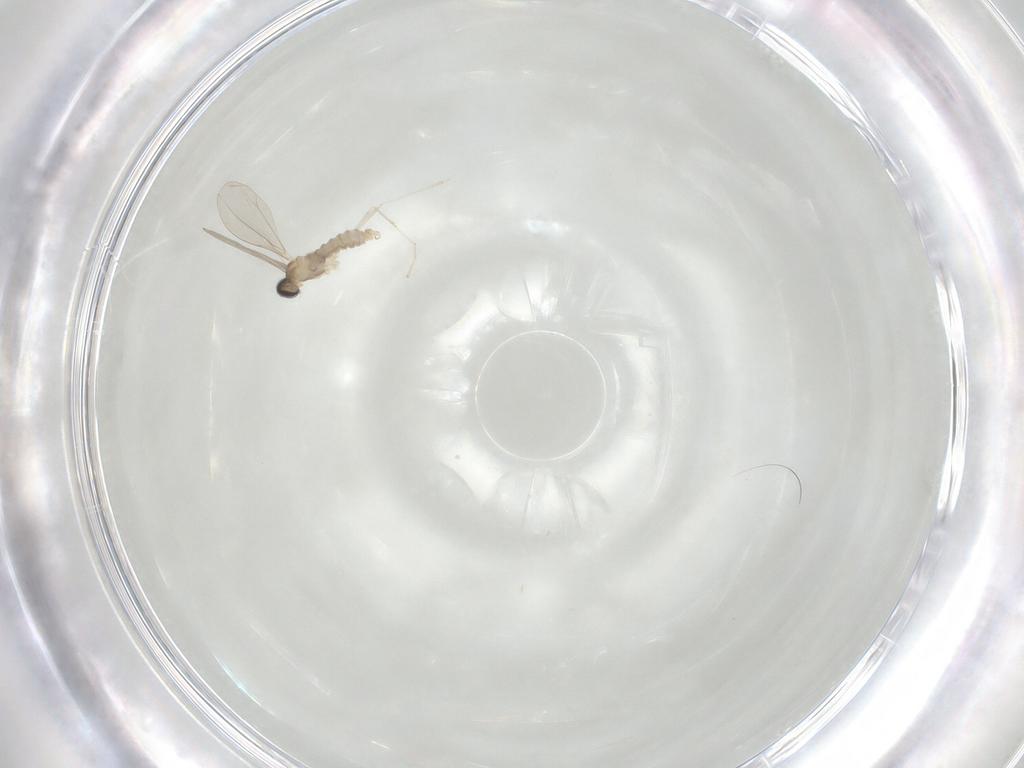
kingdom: Animalia
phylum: Arthropoda
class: Insecta
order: Diptera
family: Cecidomyiidae
